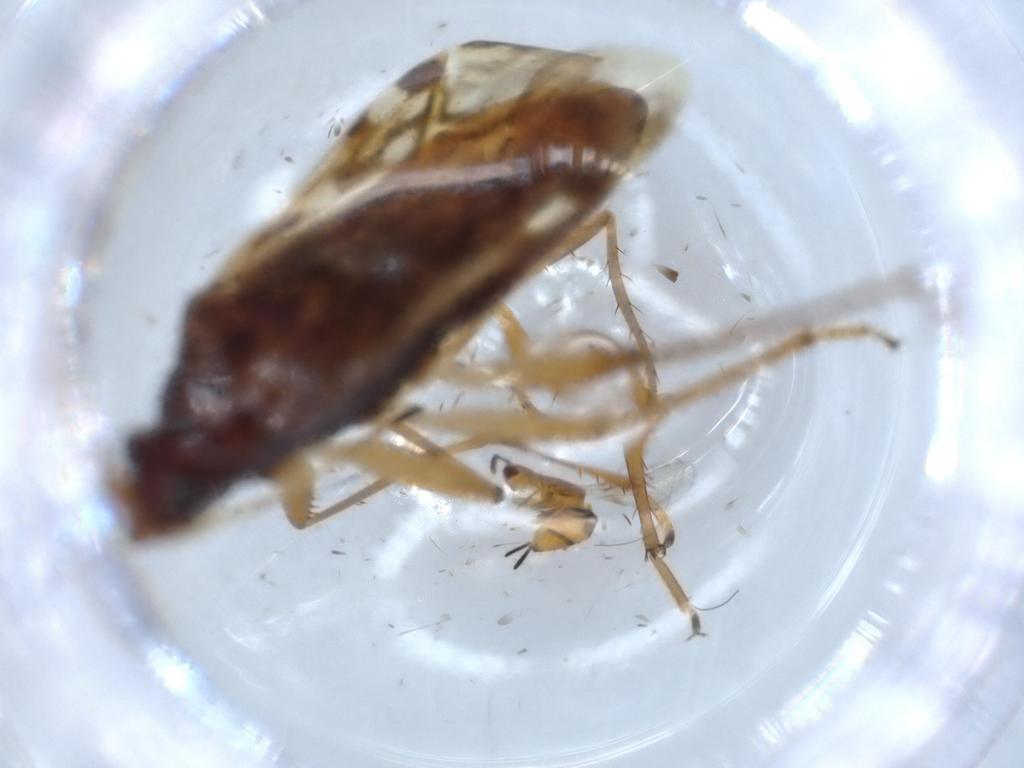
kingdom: Animalia
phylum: Arthropoda
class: Insecta
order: Hemiptera
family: Rhyparochromidae
